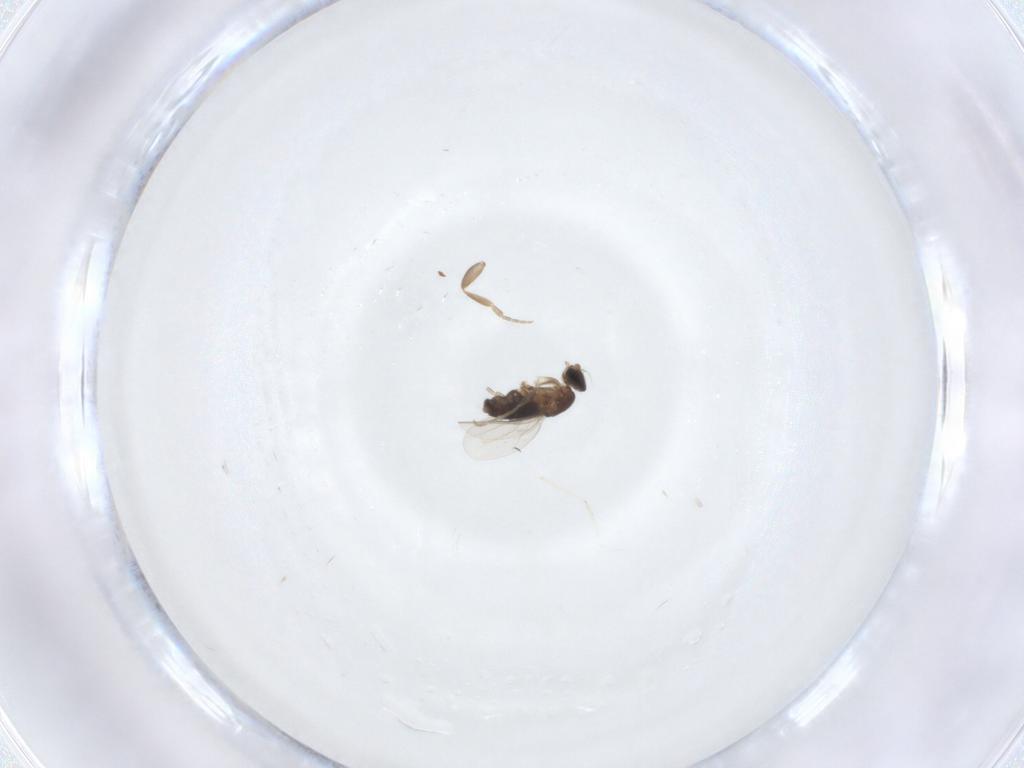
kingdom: Animalia
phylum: Arthropoda
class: Insecta
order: Diptera
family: Phoridae
